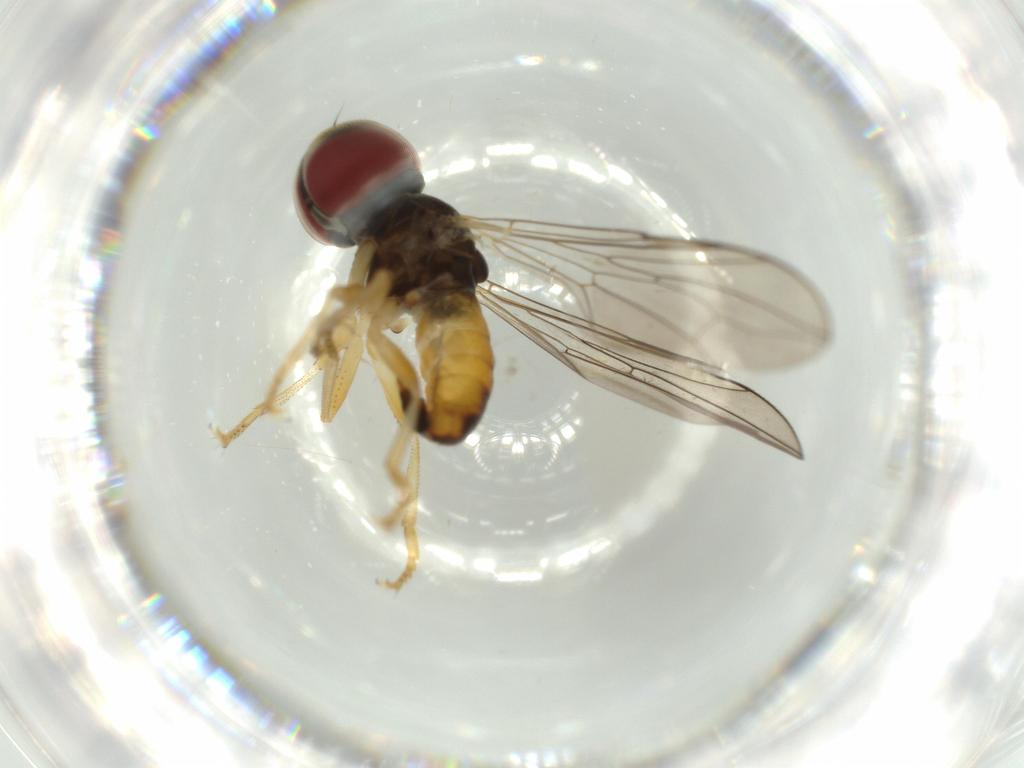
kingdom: Animalia
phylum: Arthropoda
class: Insecta
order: Diptera
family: Pipunculidae
